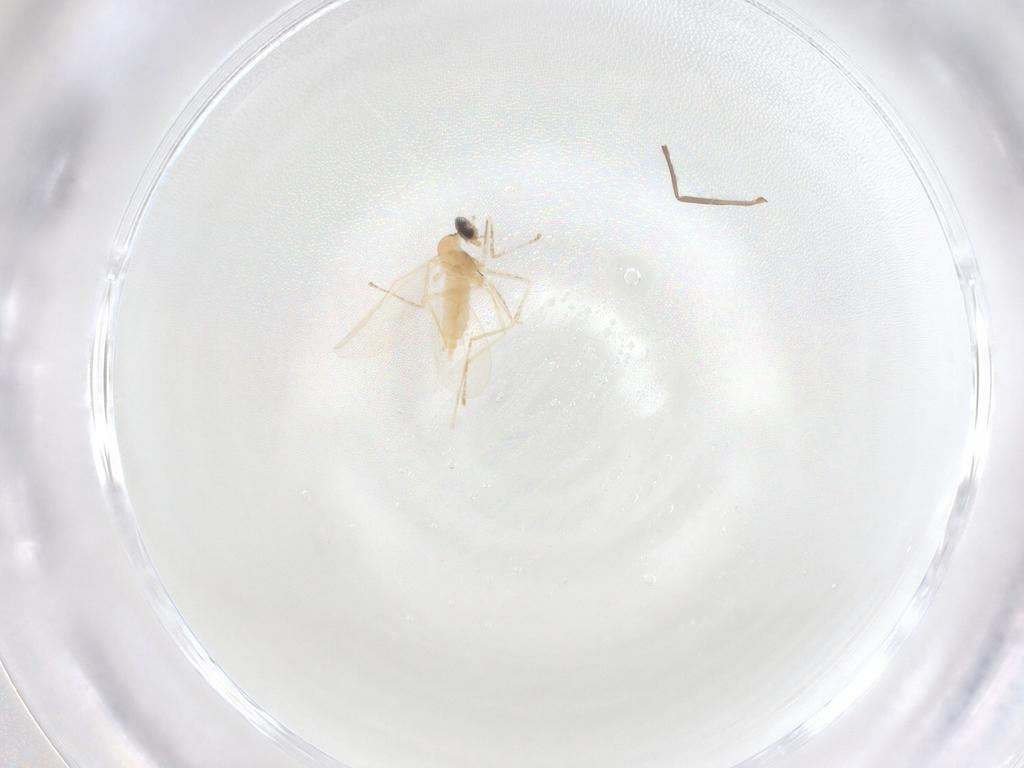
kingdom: Animalia
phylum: Arthropoda
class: Insecta
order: Diptera
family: Cecidomyiidae
